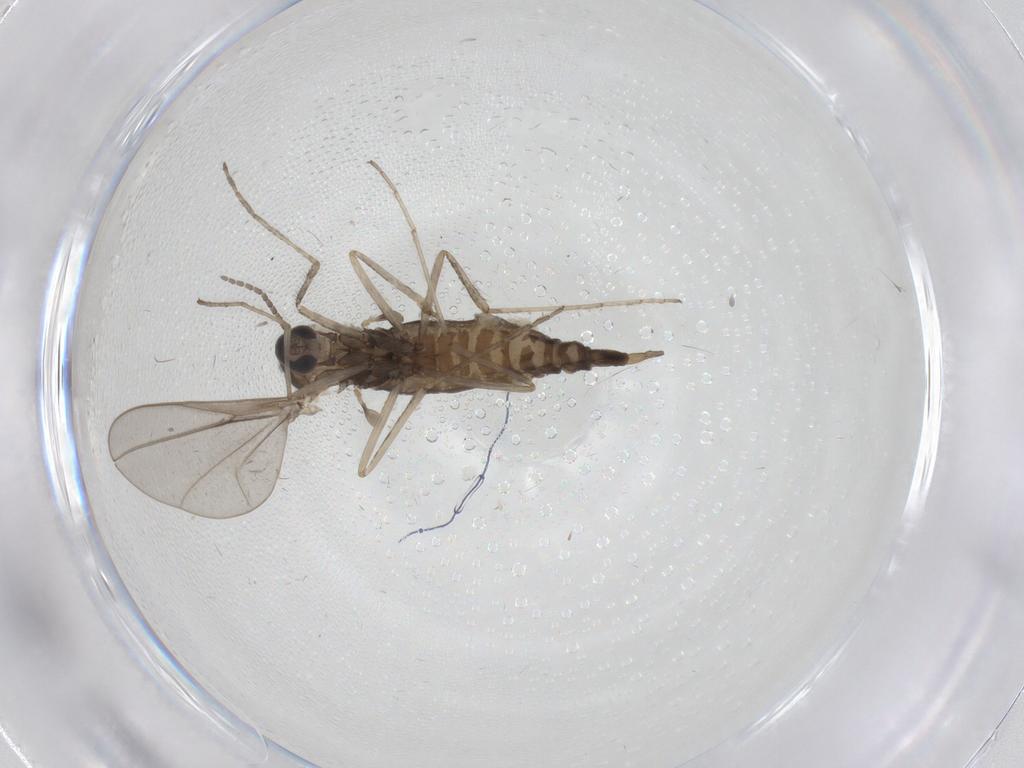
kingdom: Animalia
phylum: Arthropoda
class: Insecta
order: Diptera
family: Cecidomyiidae
